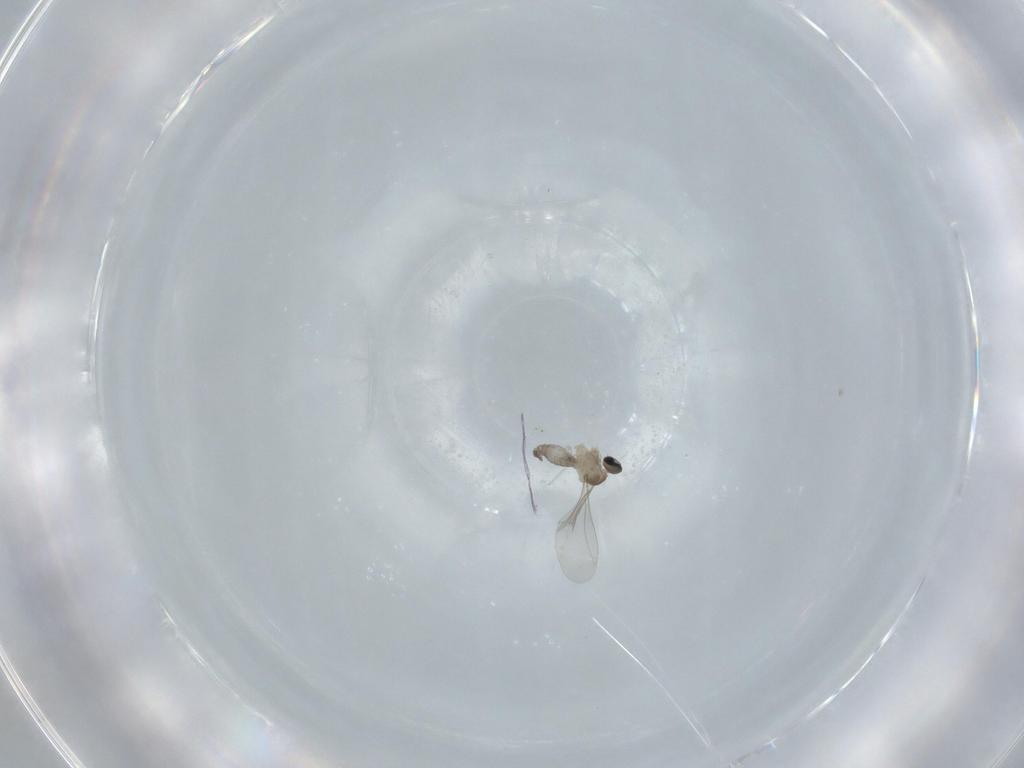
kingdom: Animalia
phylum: Arthropoda
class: Insecta
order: Diptera
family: Cecidomyiidae
